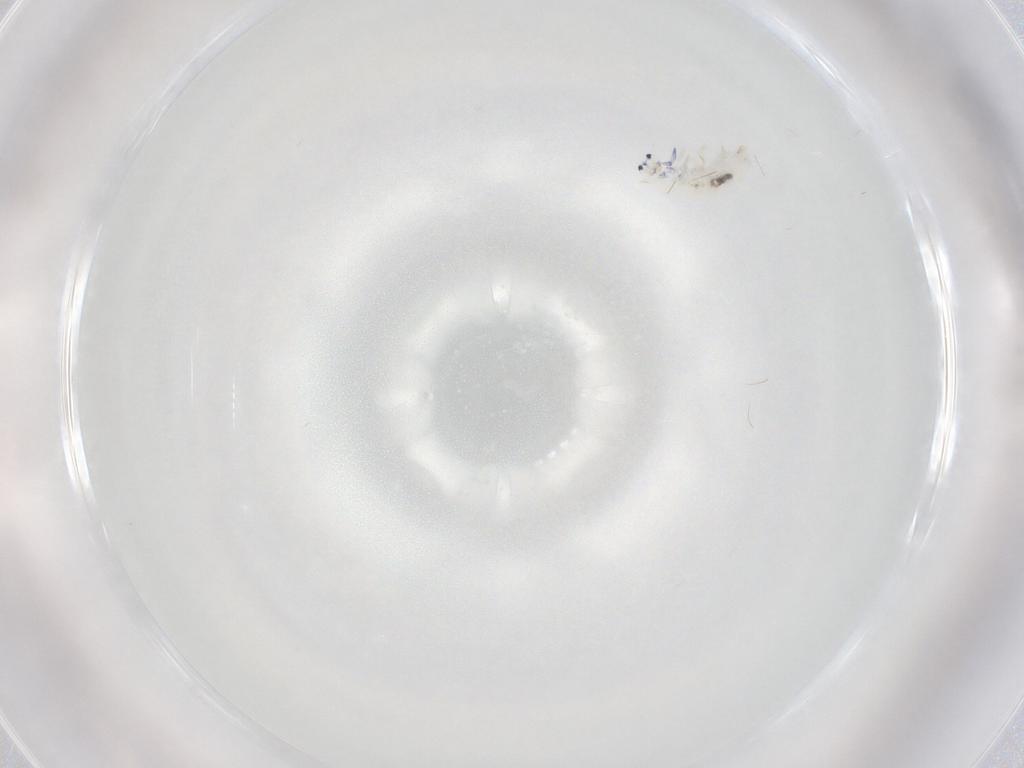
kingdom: Animalia
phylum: Arthropoda
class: Collembola
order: Entomobryomorpha
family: Entomobryidae
